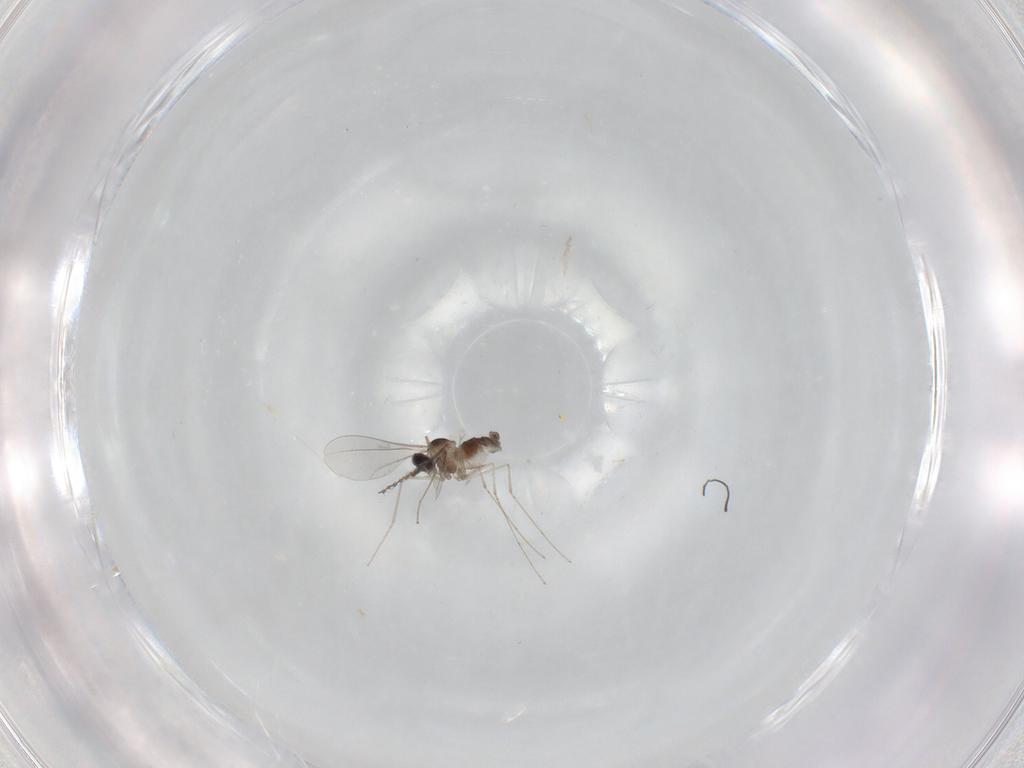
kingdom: Animalia
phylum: Arthropoda
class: Insecta
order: Diptera
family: Cecidomyiidae
